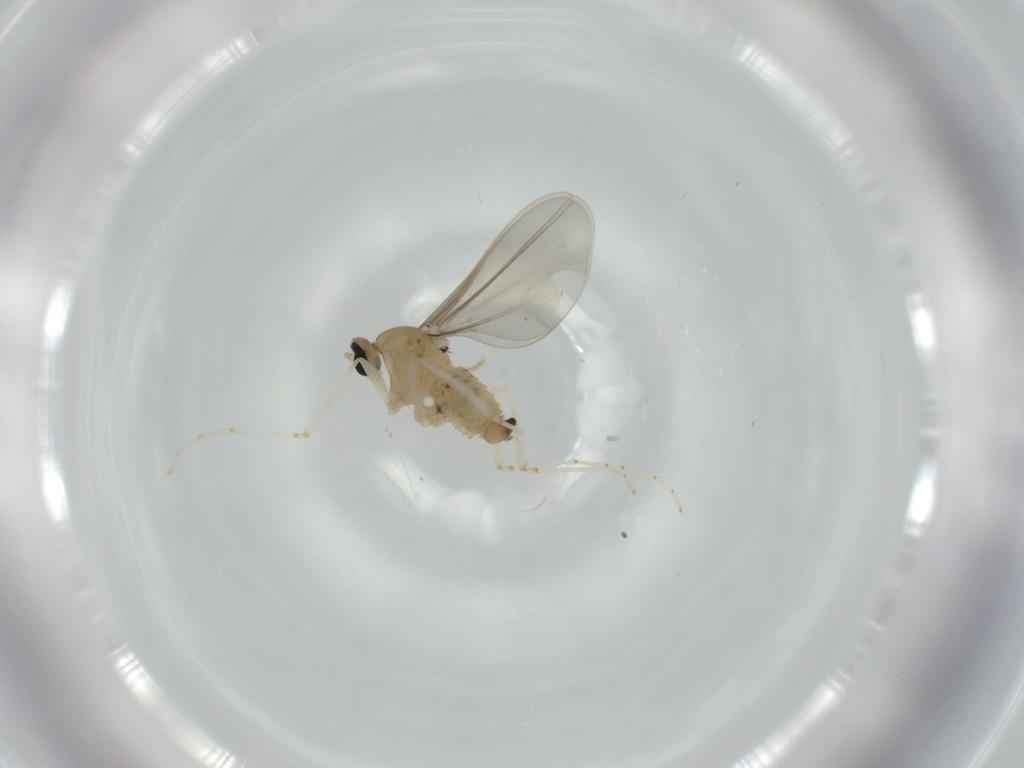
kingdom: Animalia
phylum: Arthropoda
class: Insecta
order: Diptera
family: Cecidomyiidae
